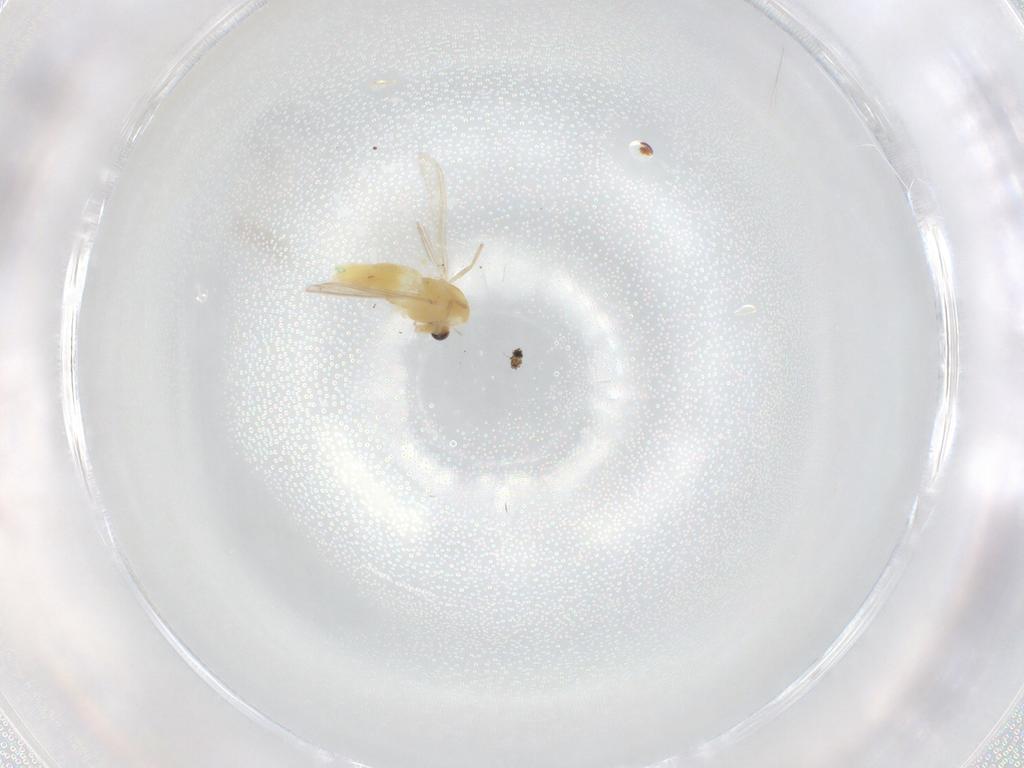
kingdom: Animalia
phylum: Arthropoda
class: Insecta
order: Diptera
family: Chironomidae
